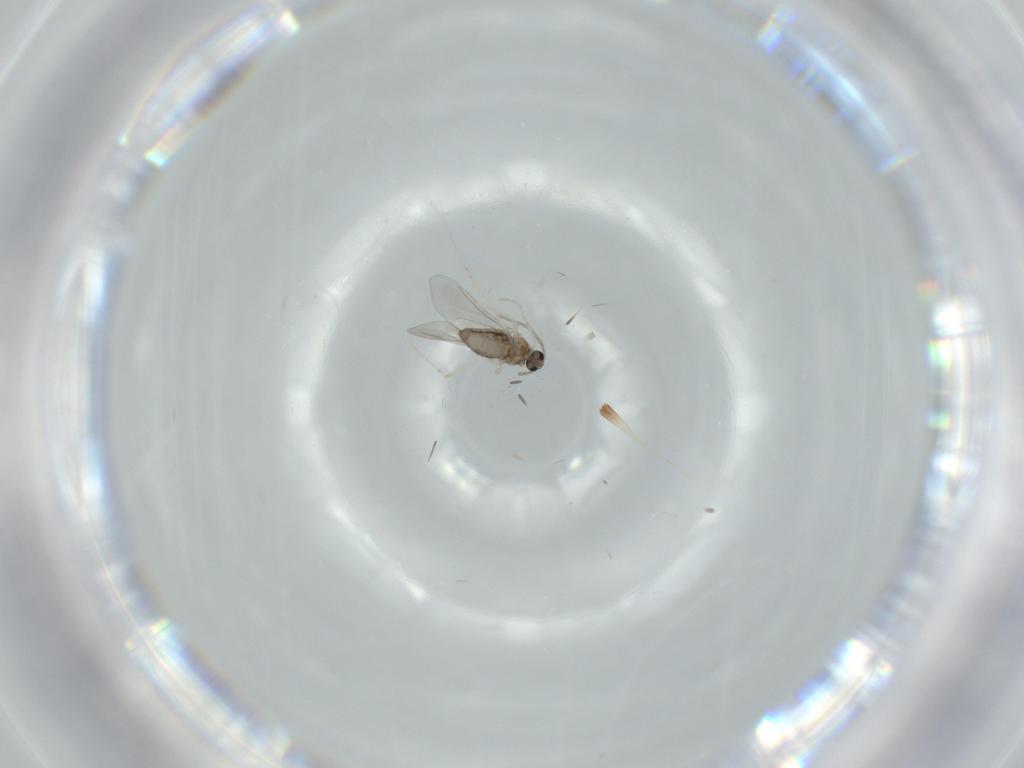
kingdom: Animalia
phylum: Arthropoda
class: Insecta
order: Diptera
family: Cecidomyiidae
